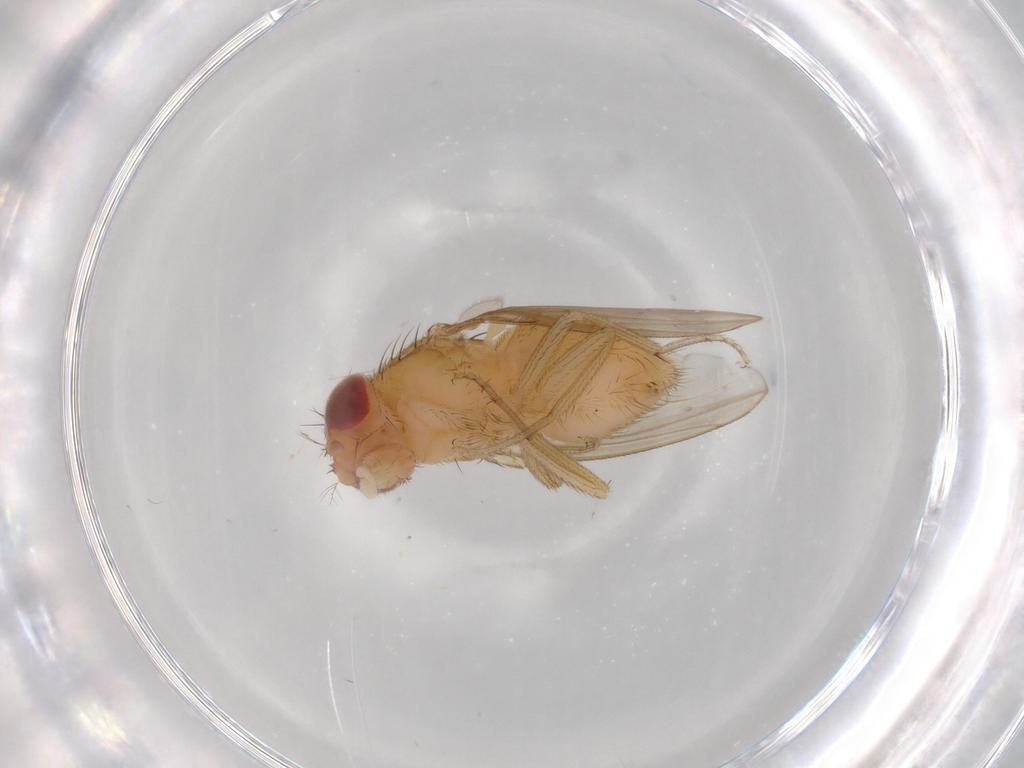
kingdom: Animalia
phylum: Arthropoda
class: Insecta
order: Diptera
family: Drosophilidae
